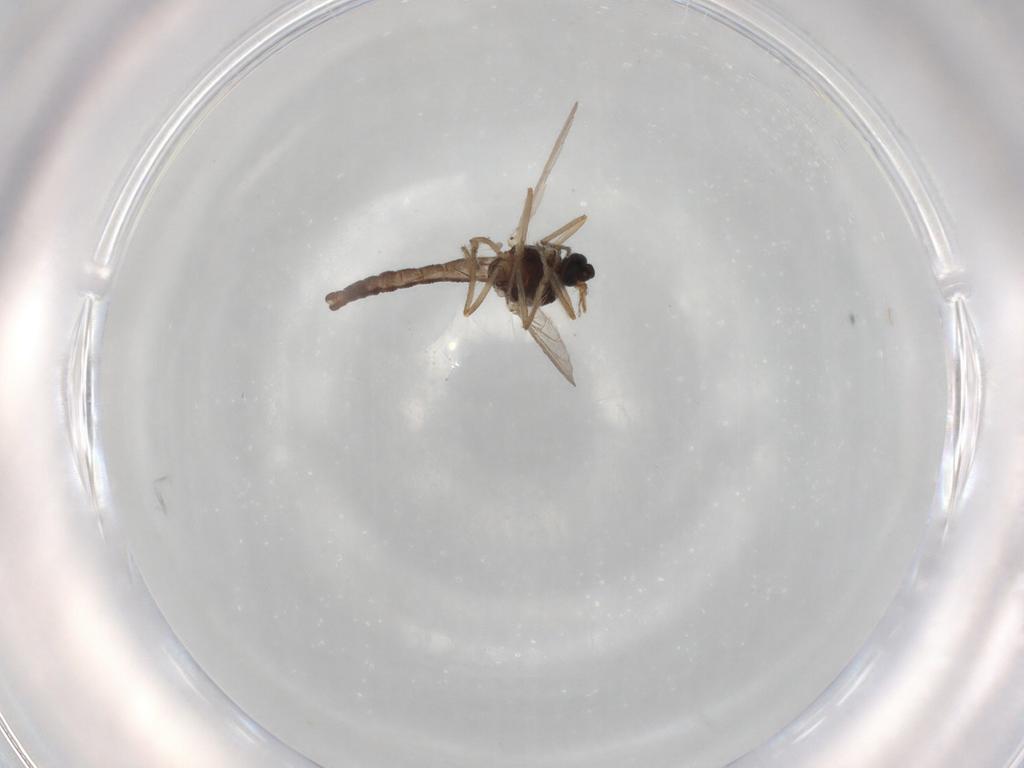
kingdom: Animalia
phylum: Arthropoda
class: Insecta
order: Diptera
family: Ceratopogonidae
